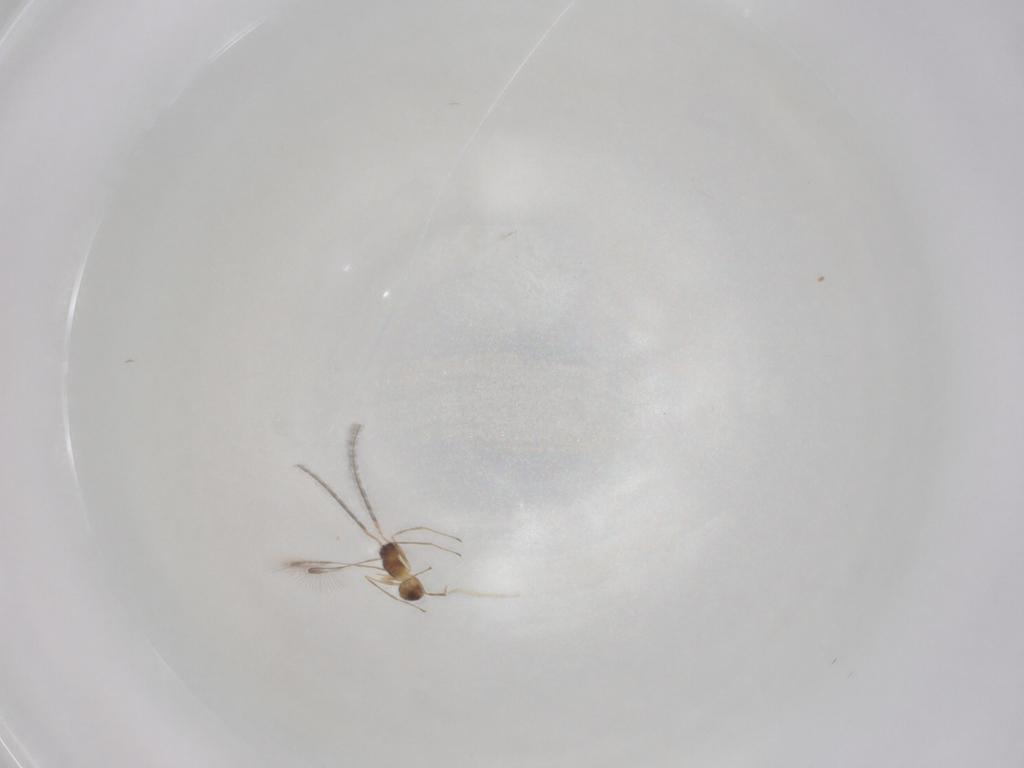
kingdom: Animalia
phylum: Arthropoda
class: Insecta
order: Hymenoptera
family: Mymaridae
